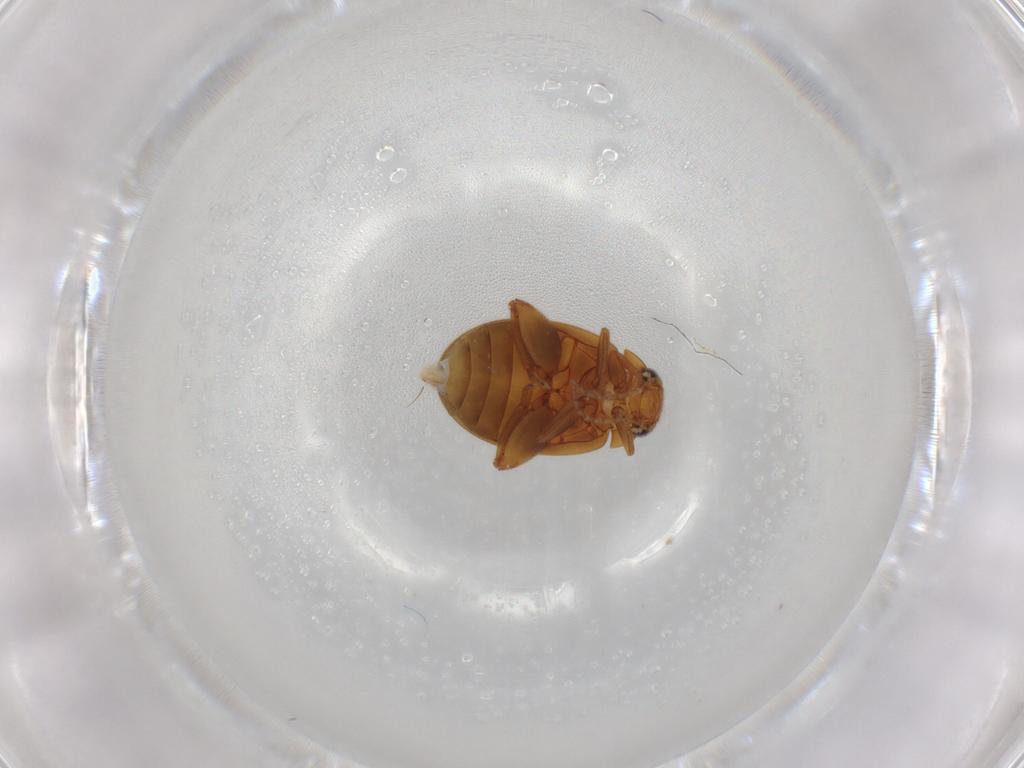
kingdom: Animalia
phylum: Arthropoda
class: Insecta
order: Coleoptera
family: Scirtidae
